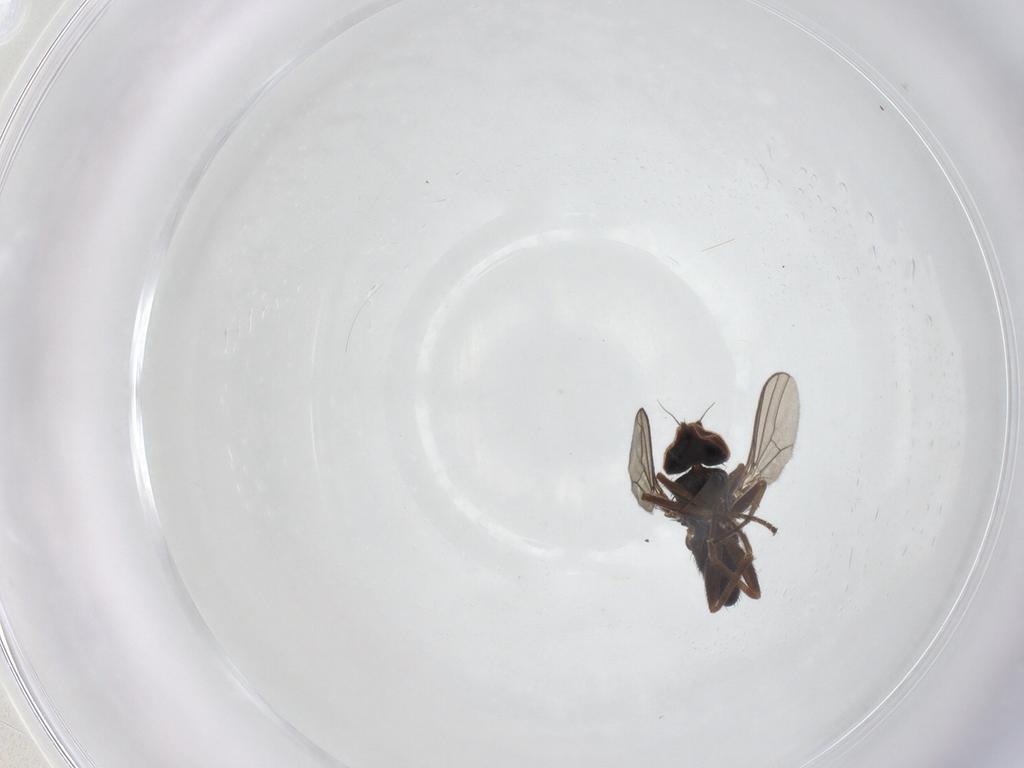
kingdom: Animalia
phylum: Arthropoda
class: Insecta
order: Diptera
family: Dolichopodidae
